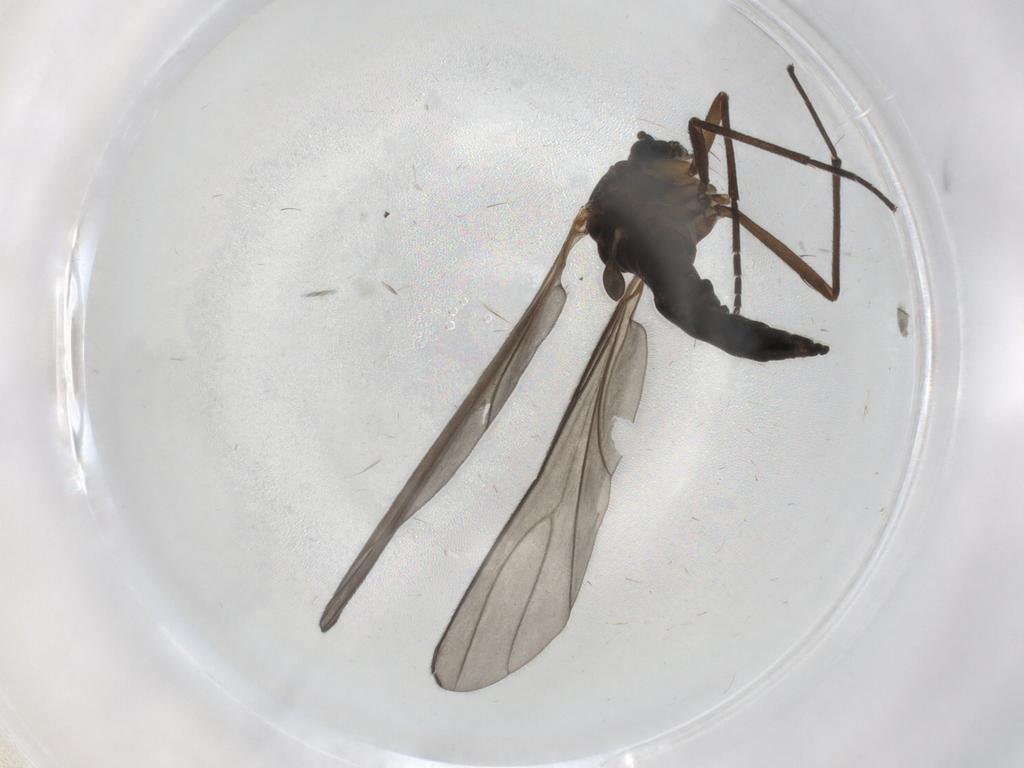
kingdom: Animalia
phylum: Arthropoda
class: Insecta
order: Diptera
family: Sciaridae
